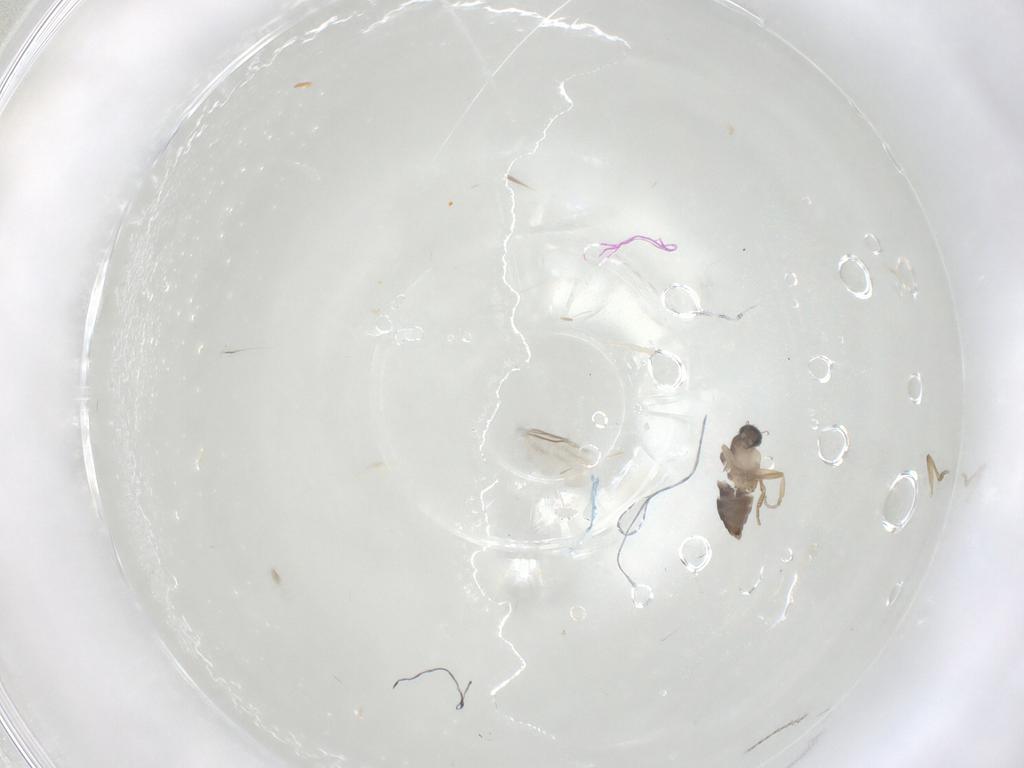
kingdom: Animalia
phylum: Arthropoda
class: Insecta
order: Diptera
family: Phoridae
